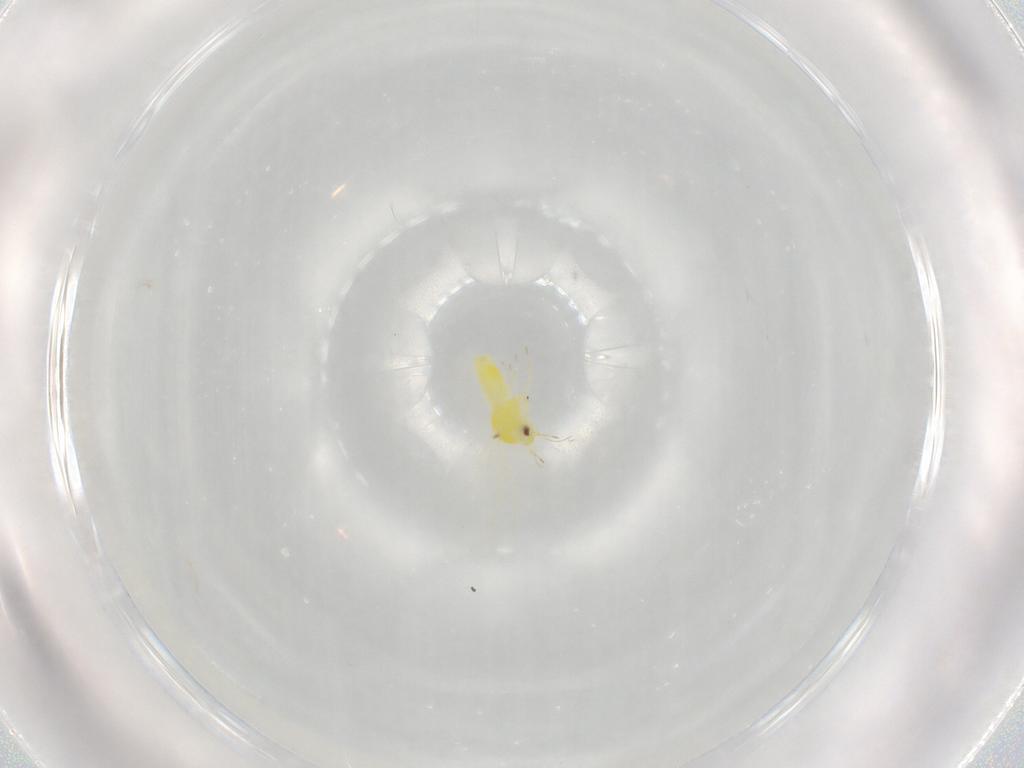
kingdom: Animalia
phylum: Arthropoda
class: Insecta
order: Hemiptera
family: Aleyrodidae
